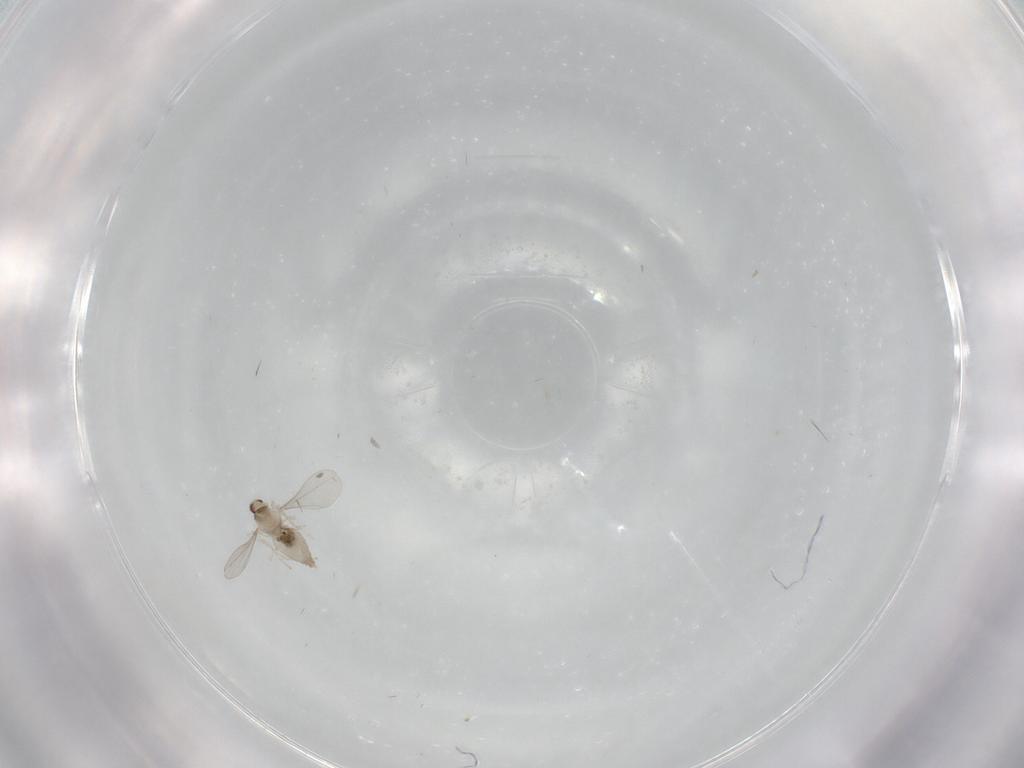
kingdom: Animalia
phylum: Arthropoda
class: Insecta
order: Diptera
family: Cecidomyiidae
